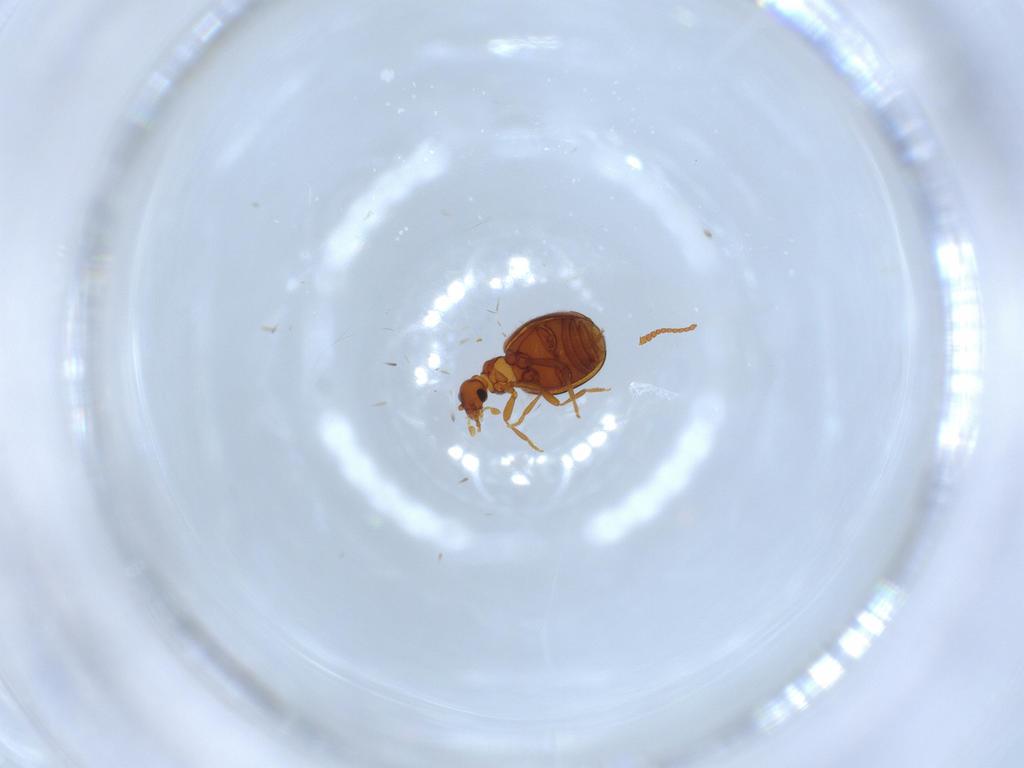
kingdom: Animalia
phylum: Arthropoda
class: Insecta
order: Coleoptera
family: Aderidae
